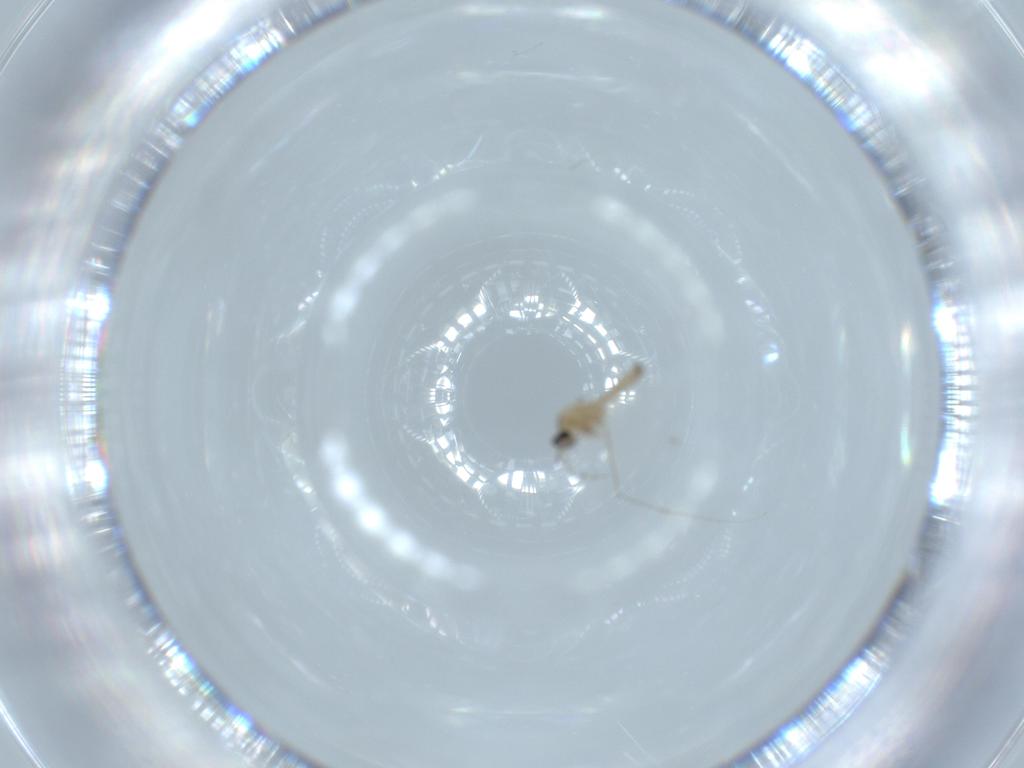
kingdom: Animalia
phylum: Arthropoda
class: Insecta
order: Diptera
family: Cecidomyiidae
